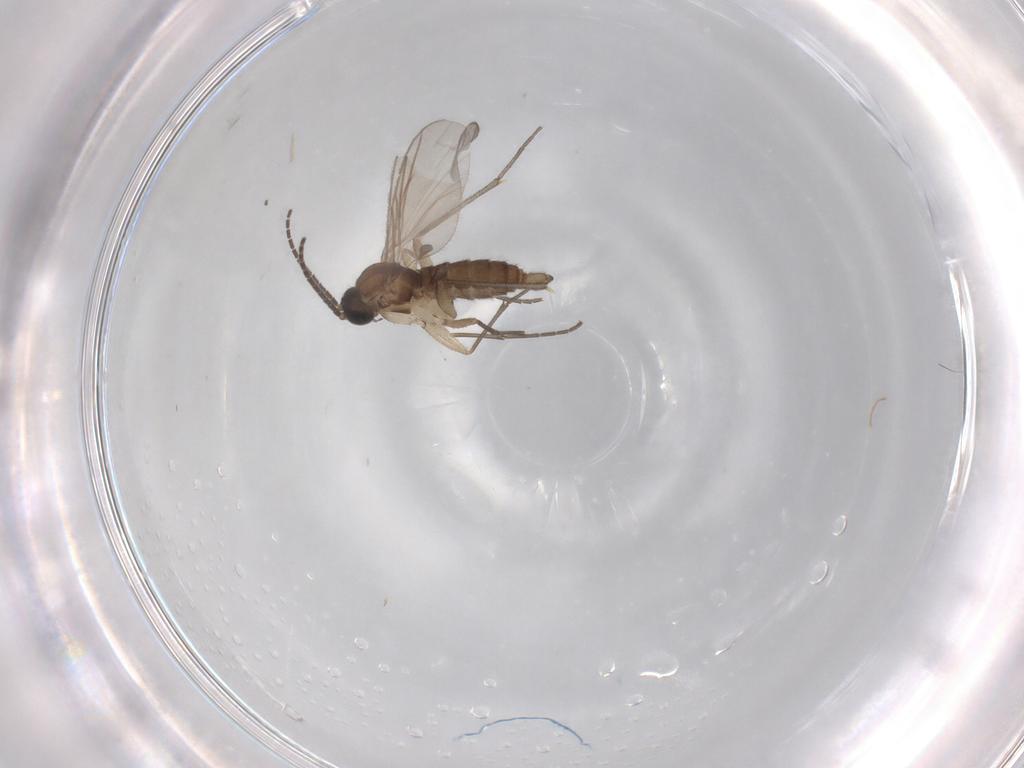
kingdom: Animalia
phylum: Arthropoda
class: Insecta
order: Diptera
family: Sciaridae
